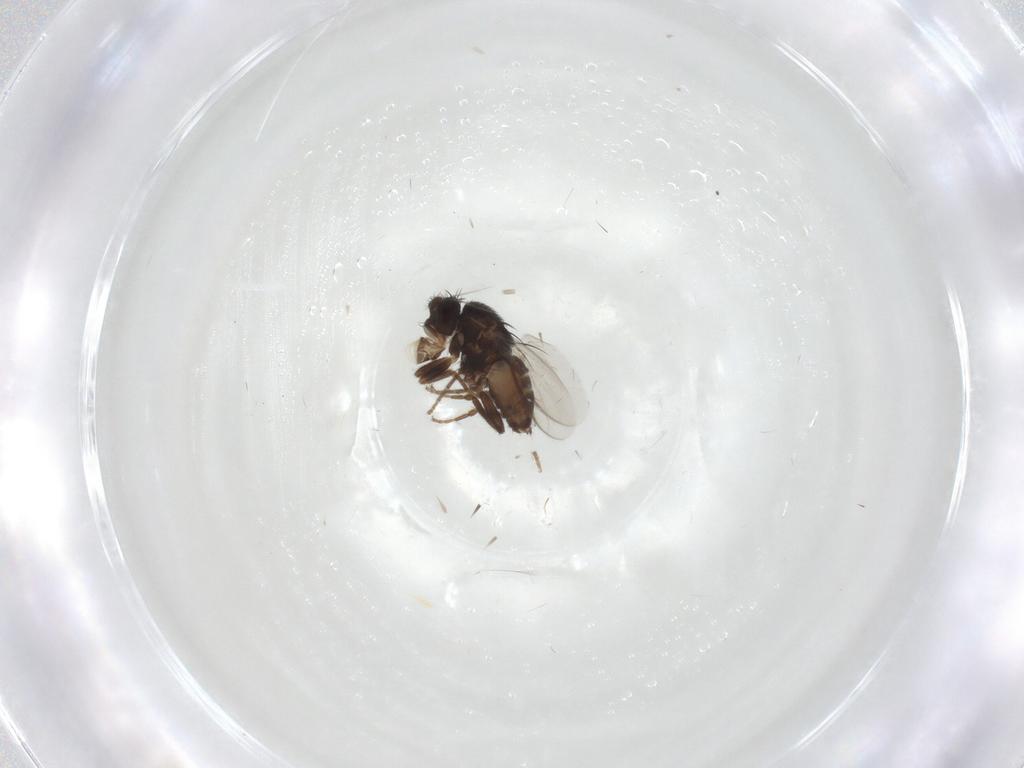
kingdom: Animalia
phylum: Arthropoda
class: Insecta
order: Diptera
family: Sphaeroceridae
